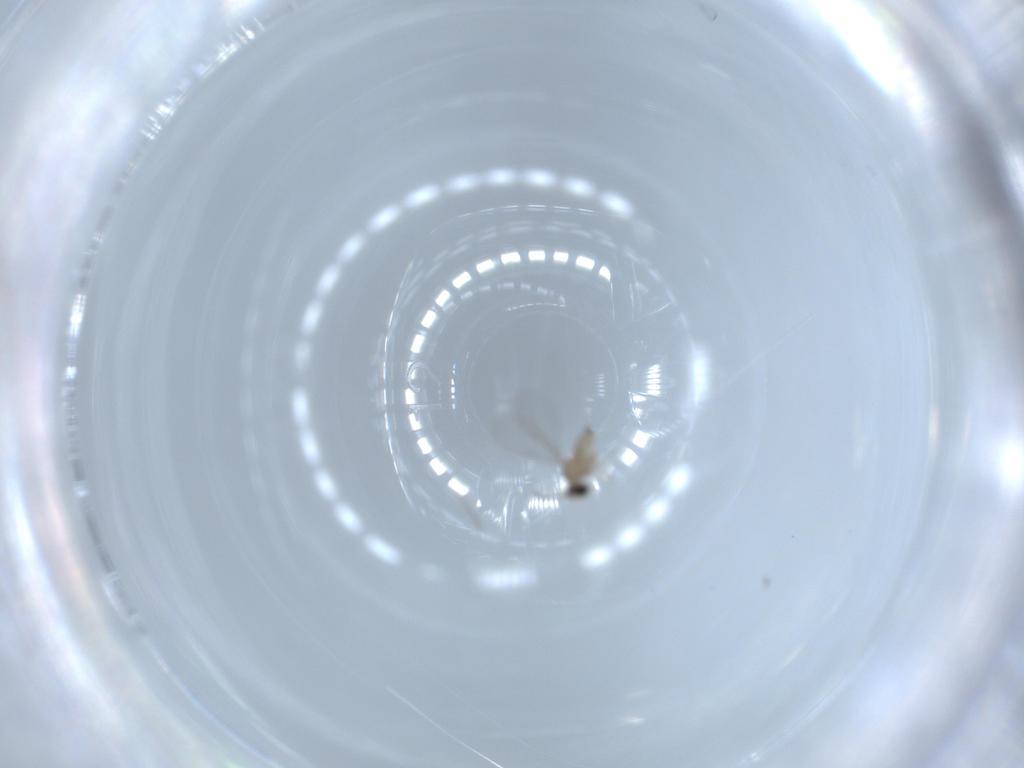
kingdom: Animalia
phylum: Arthropoda
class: Insecta
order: Diptera
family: Cecidomyiidae
